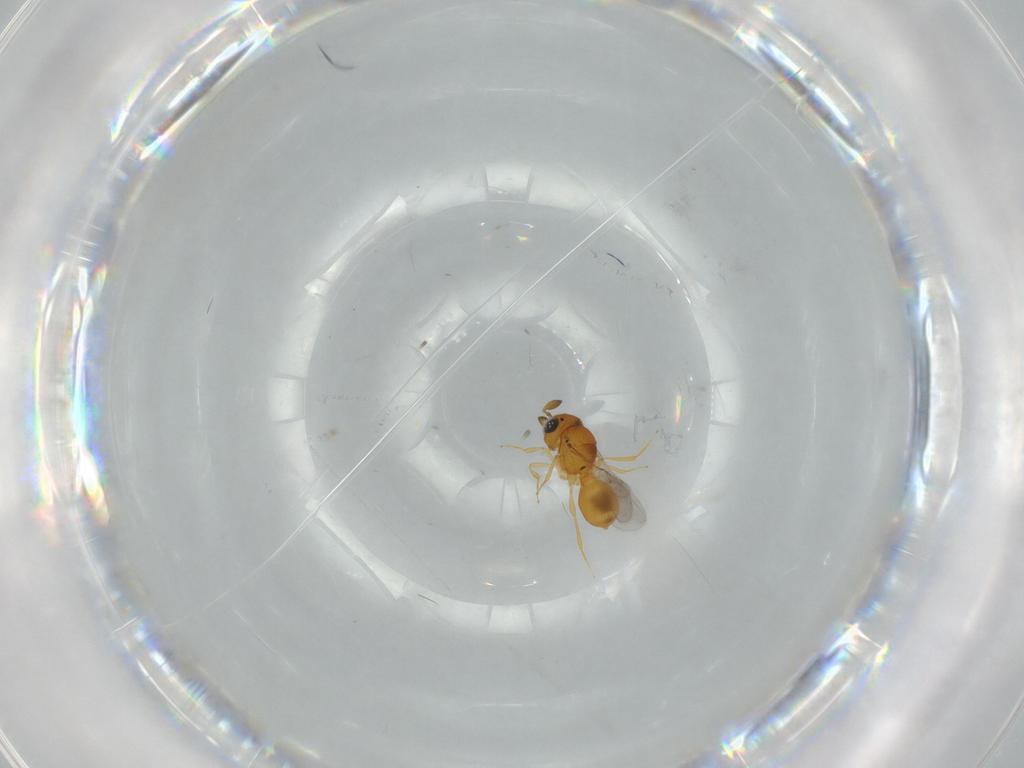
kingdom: Animalia
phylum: Arthropoda
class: Insecta
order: Hymenoptera
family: Scelionidae
